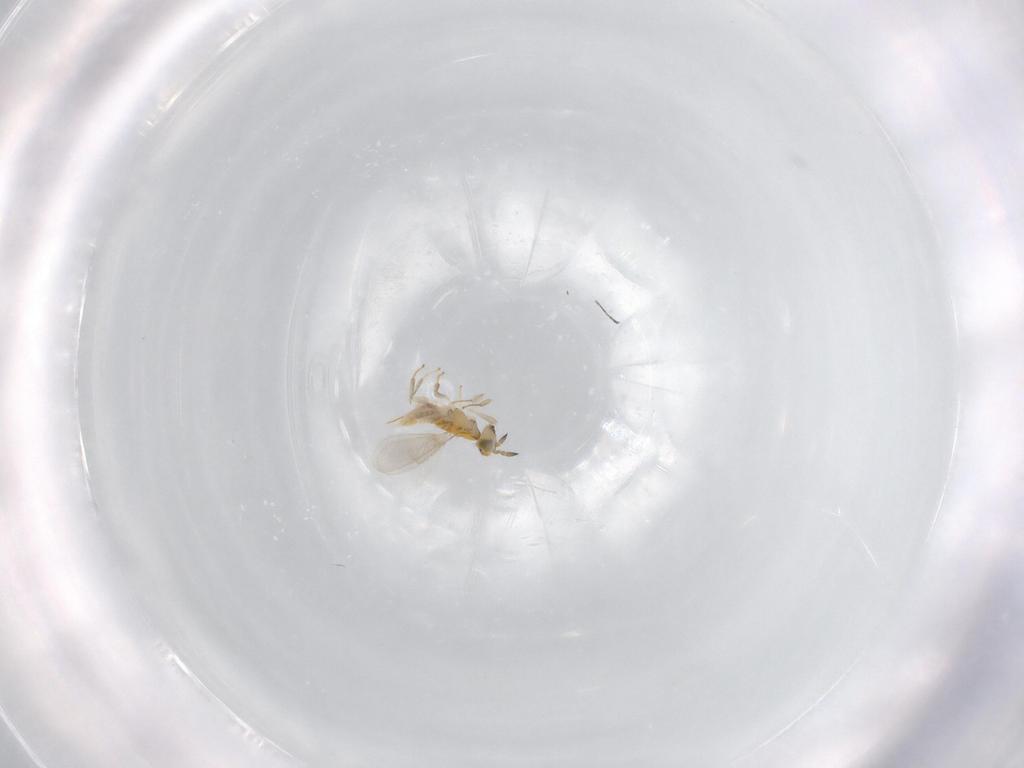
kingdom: Animalia
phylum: Arthropoda
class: Insecta
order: Hymenoptera
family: Aphelinidae
